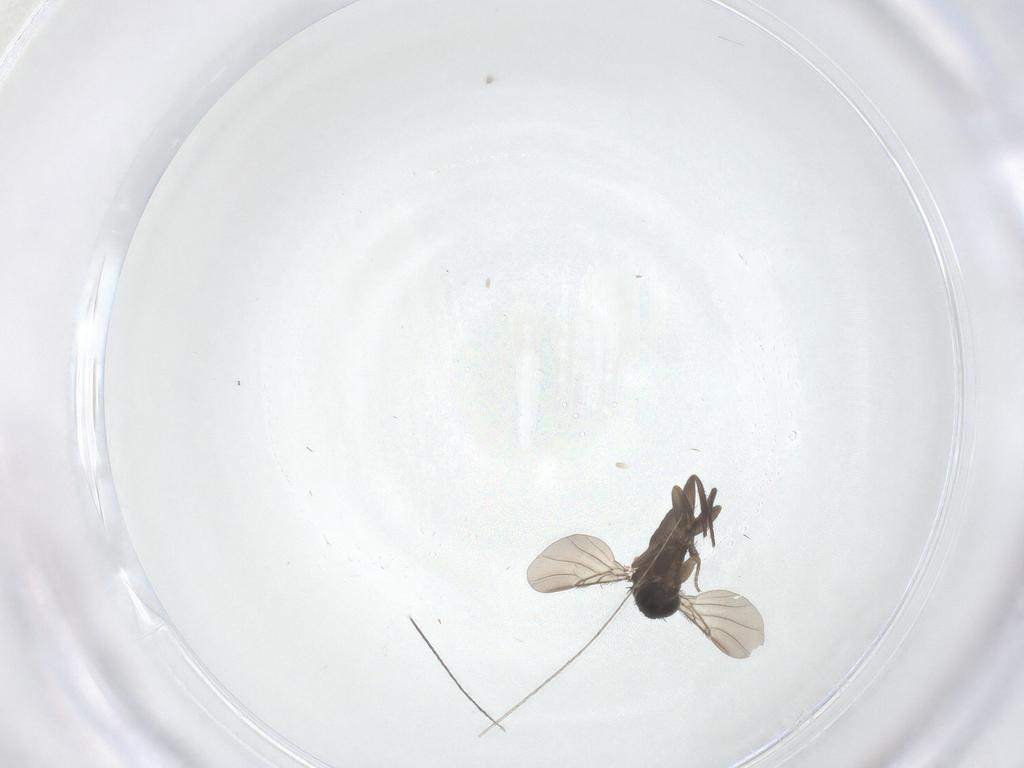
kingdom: Animalia
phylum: Arthropoda
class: Insecta
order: Diptera
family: Phoridae
